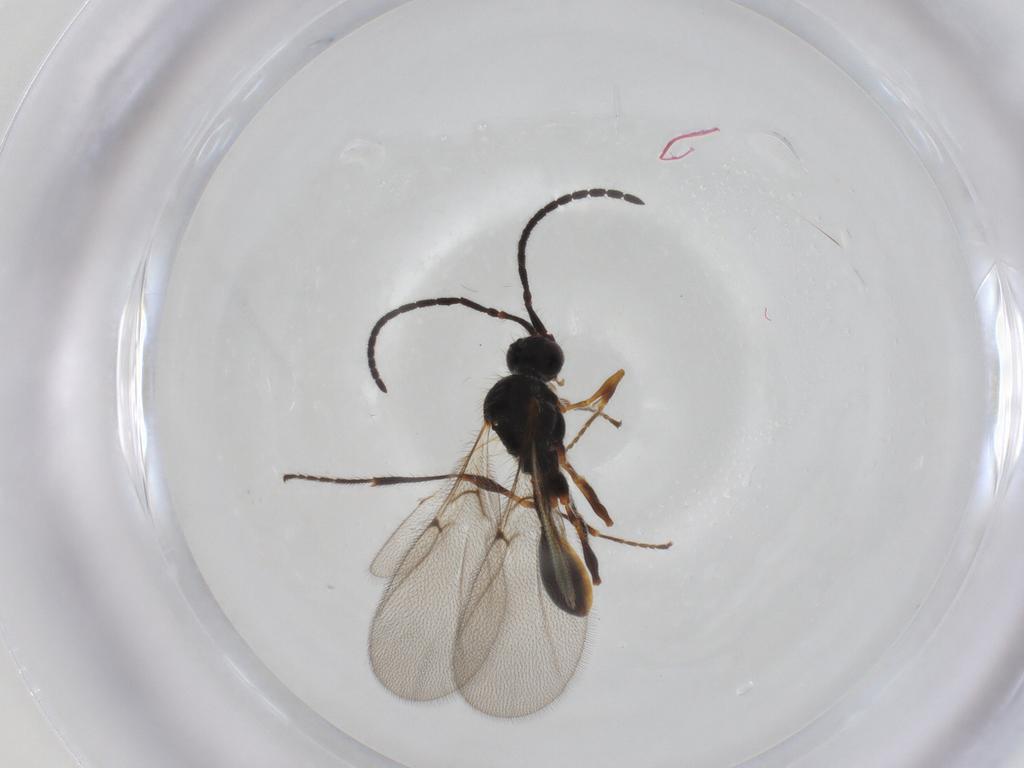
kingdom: Animalia
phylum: Arthropoda
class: Insecta
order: Hymenoptera
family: Diapriidae
